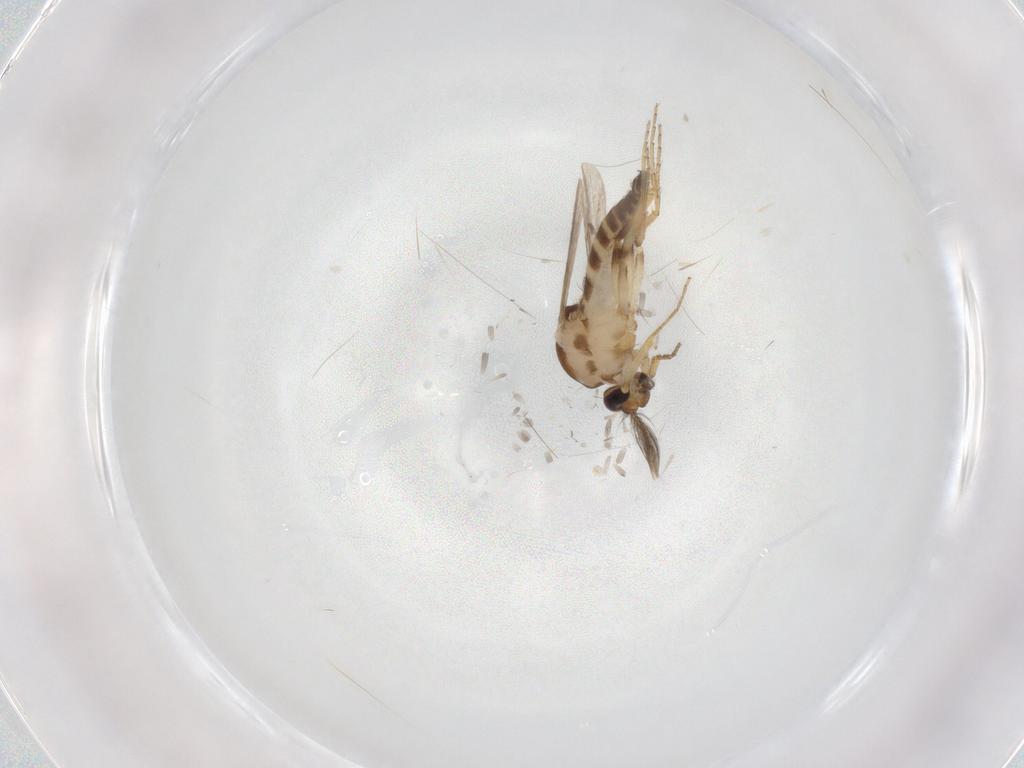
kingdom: Animalia
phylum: Arthropoda
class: Insecta
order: Diptera
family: Ceratopogonidae
